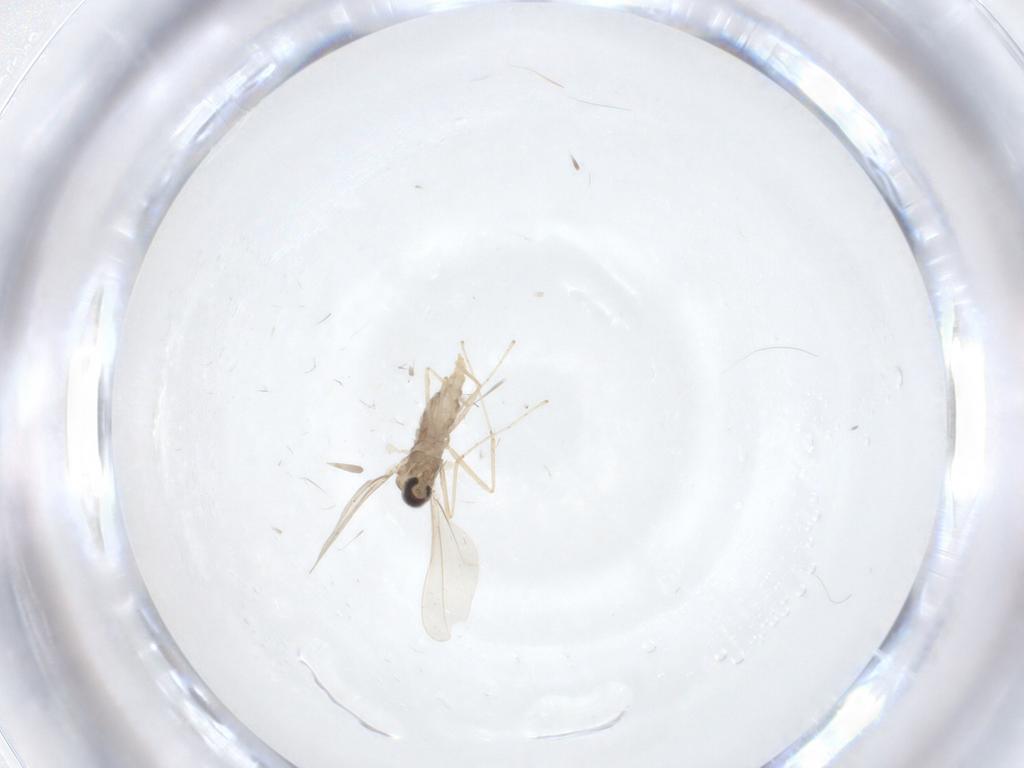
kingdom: Animalia
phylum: Arthropoda
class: Insecta
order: Diptera
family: Cecidomyiidae
